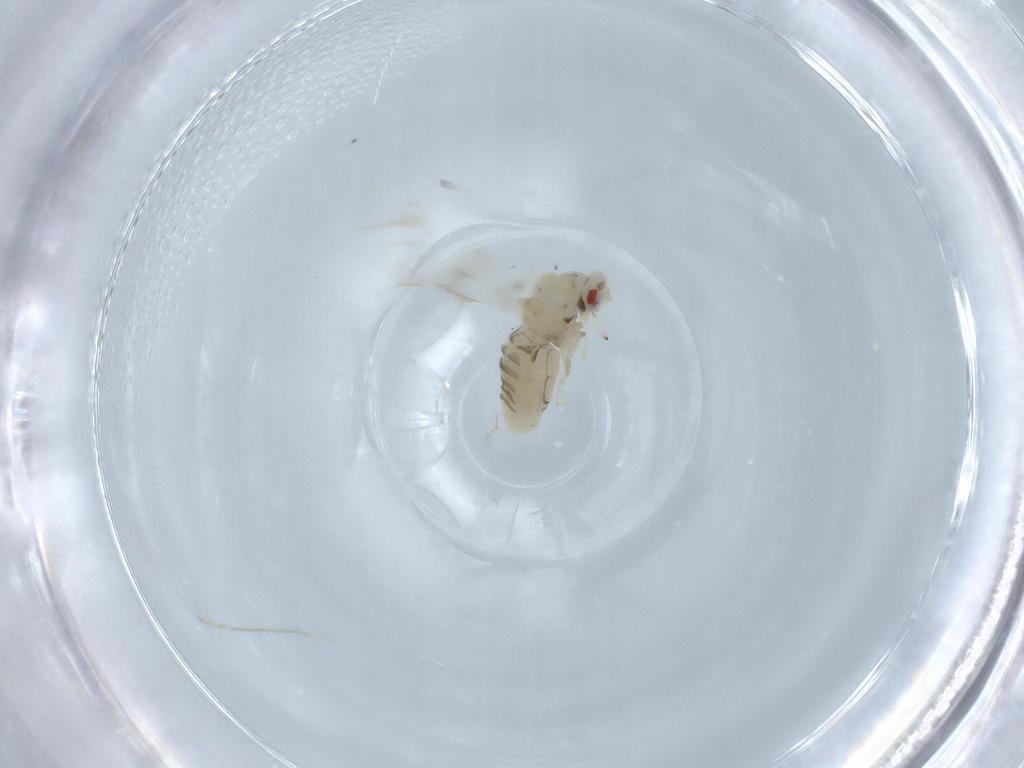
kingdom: Animalia
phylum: Arthropoda
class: Insecta
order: Hemiptera
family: Aleyrodidae
